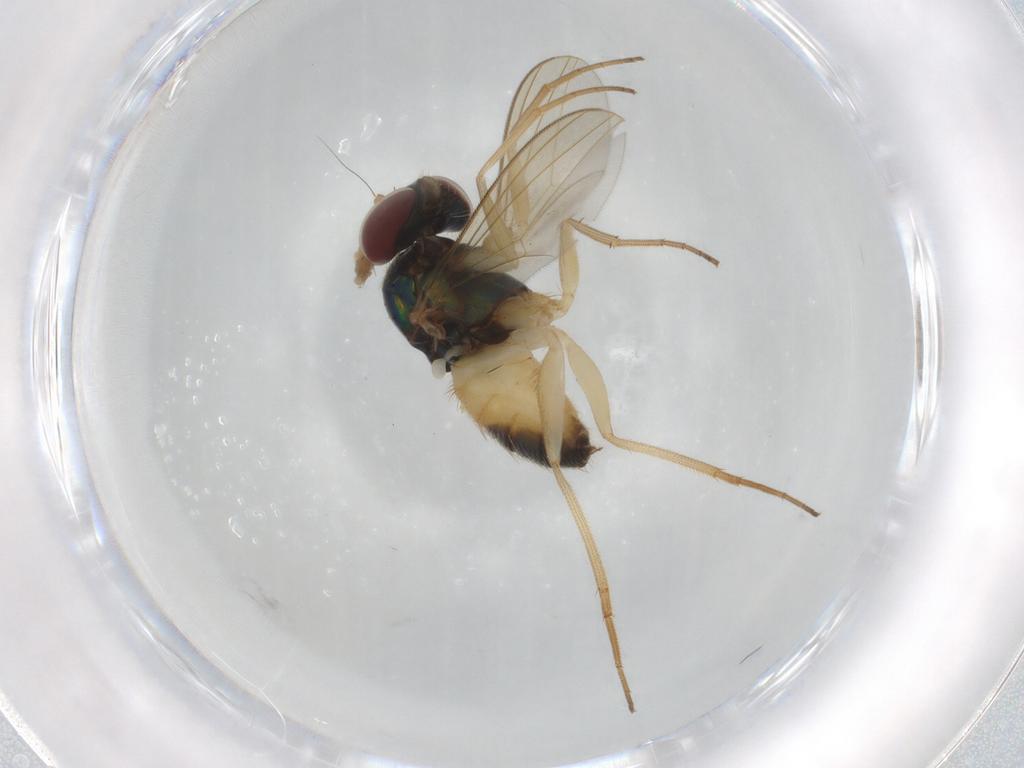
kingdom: Animalia
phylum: Arthropoda
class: Insecta
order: Diptera
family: Dolichopodidae
